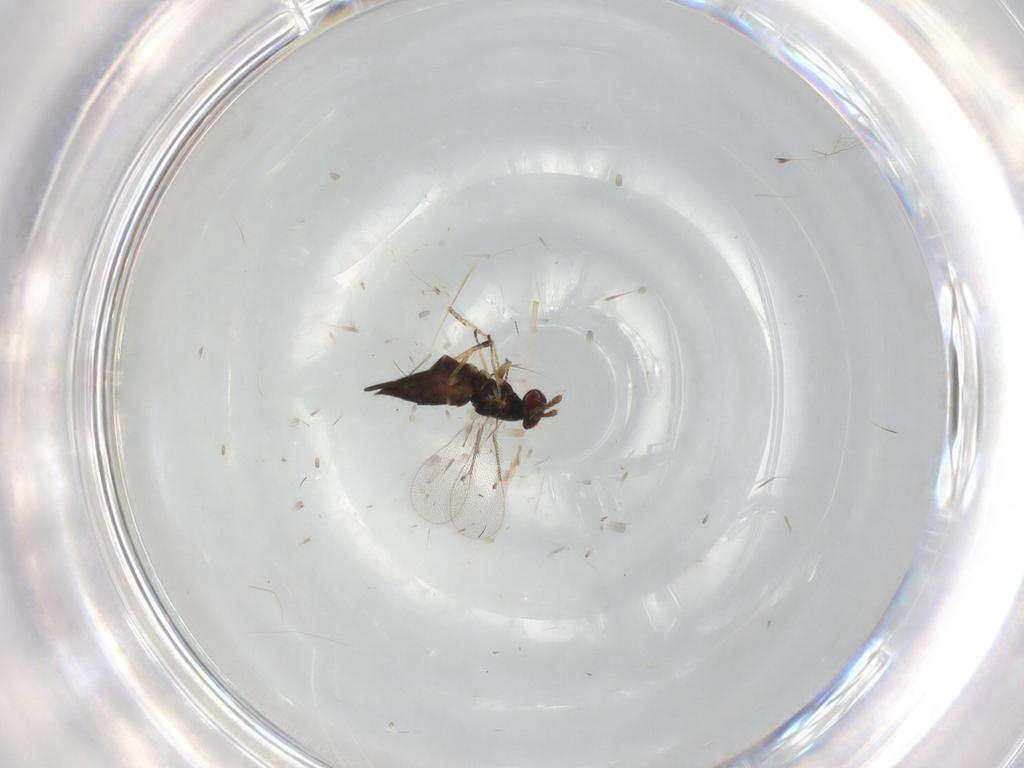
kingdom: Animalia
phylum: Arthropoda
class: Insecta
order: Hymenoptera
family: Eulophidae
